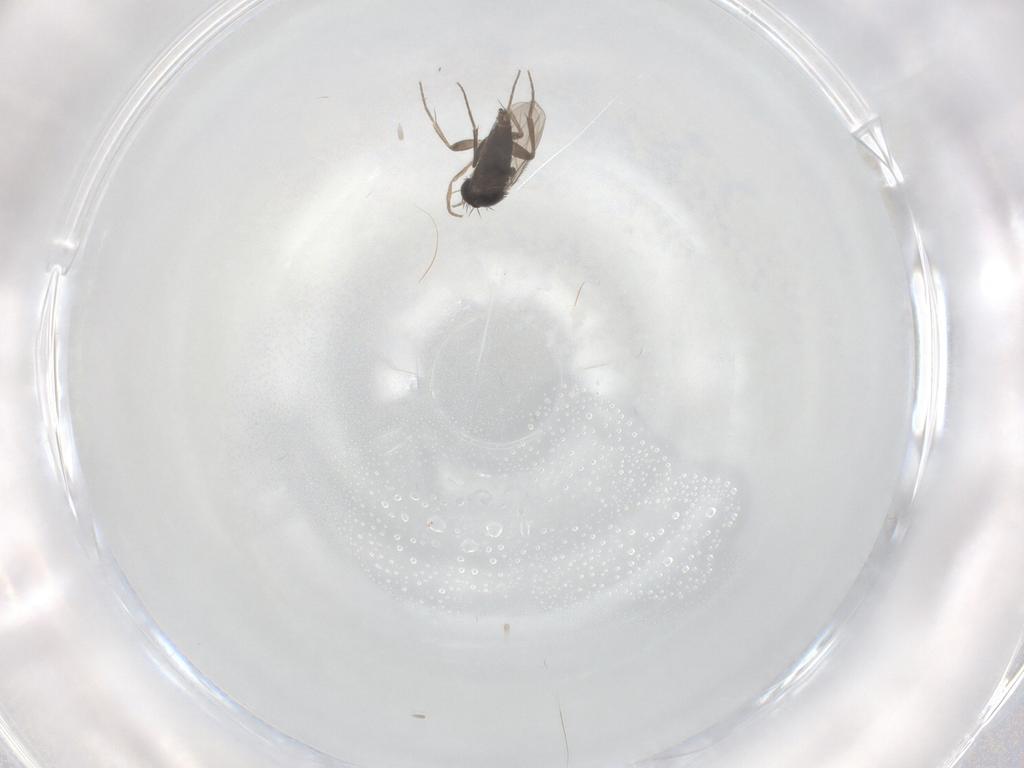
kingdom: Animalia
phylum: Arthropoda
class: Insecta
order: Diptera
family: Phoridae
